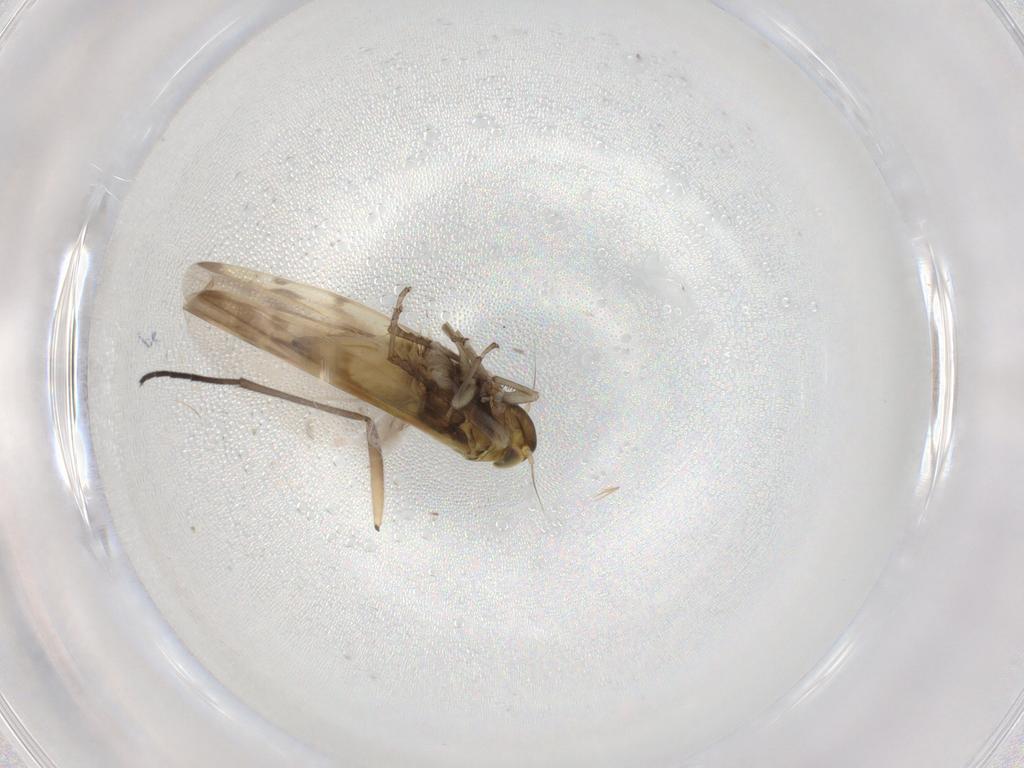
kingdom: Animalia
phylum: Arthropoda
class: Insecta
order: Hemiptera
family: Cicadellidae
